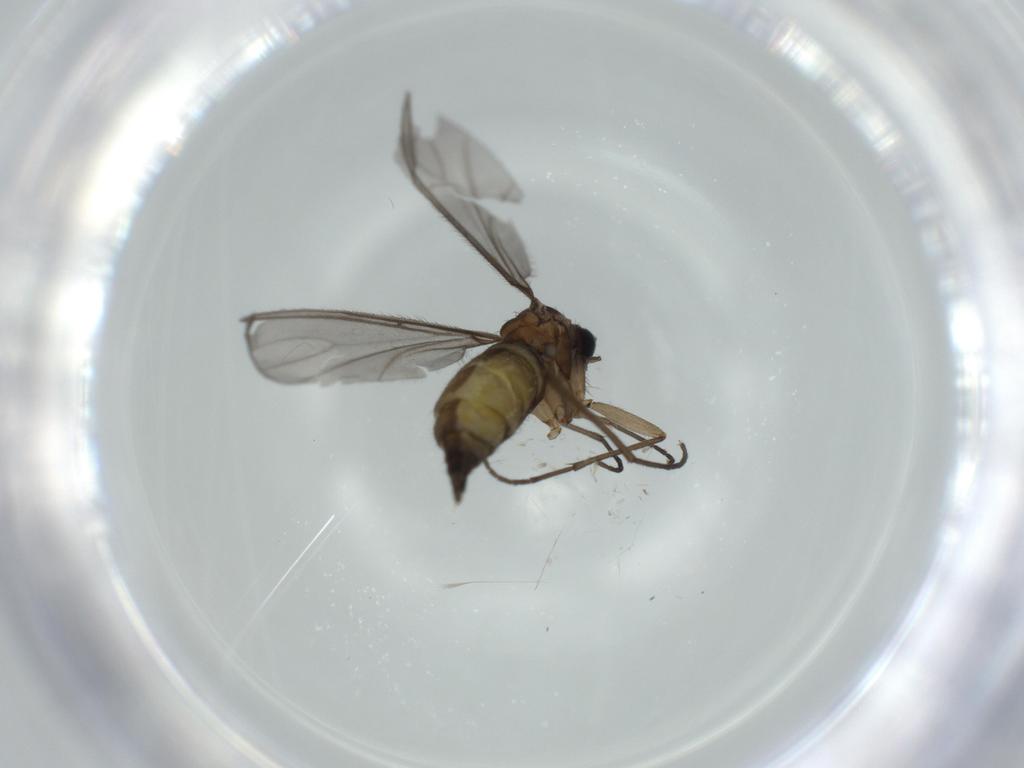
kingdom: Animalia
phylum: Arthropoda
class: Insecta
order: Diptera
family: Sciaridae
